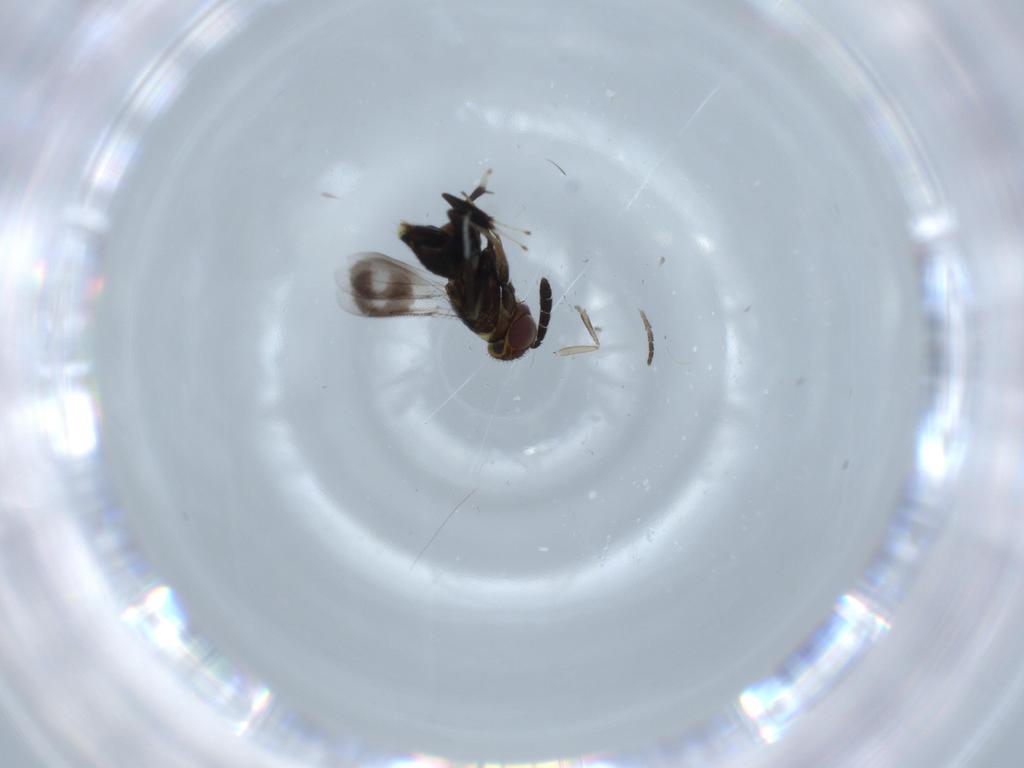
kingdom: Animalia
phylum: Arthropoda
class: Insecta
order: Hymenoptera
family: Aphelinidae
